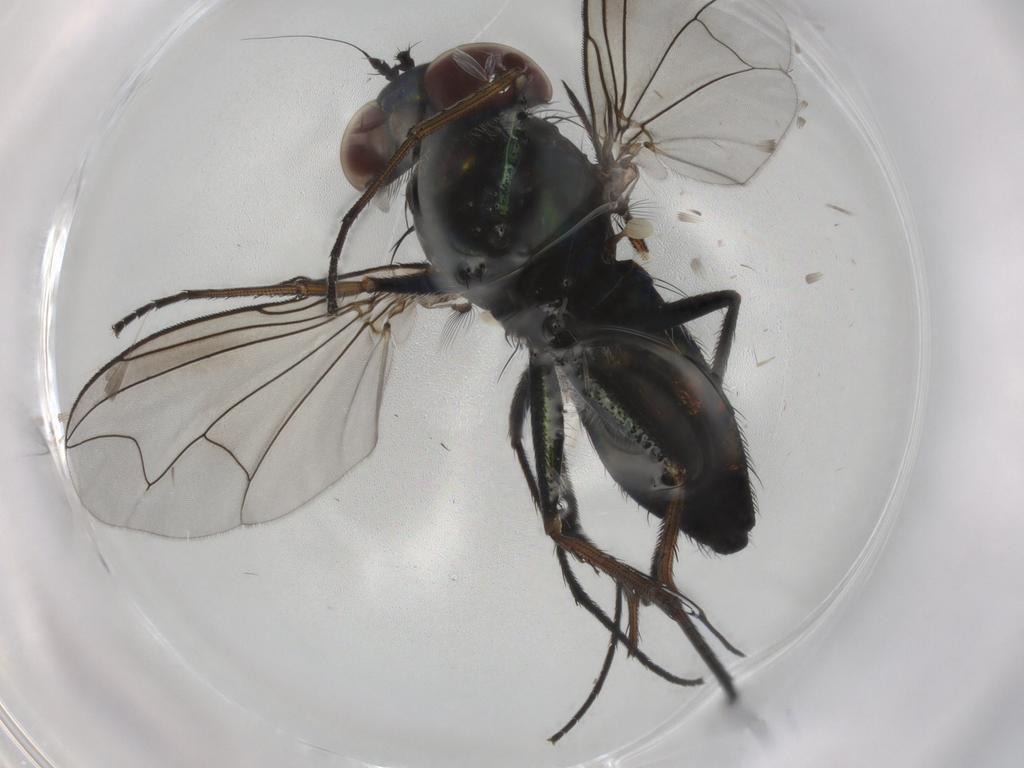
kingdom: Animalia
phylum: Arthropoda
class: Insecta
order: Diptera
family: Dolichopodidae
